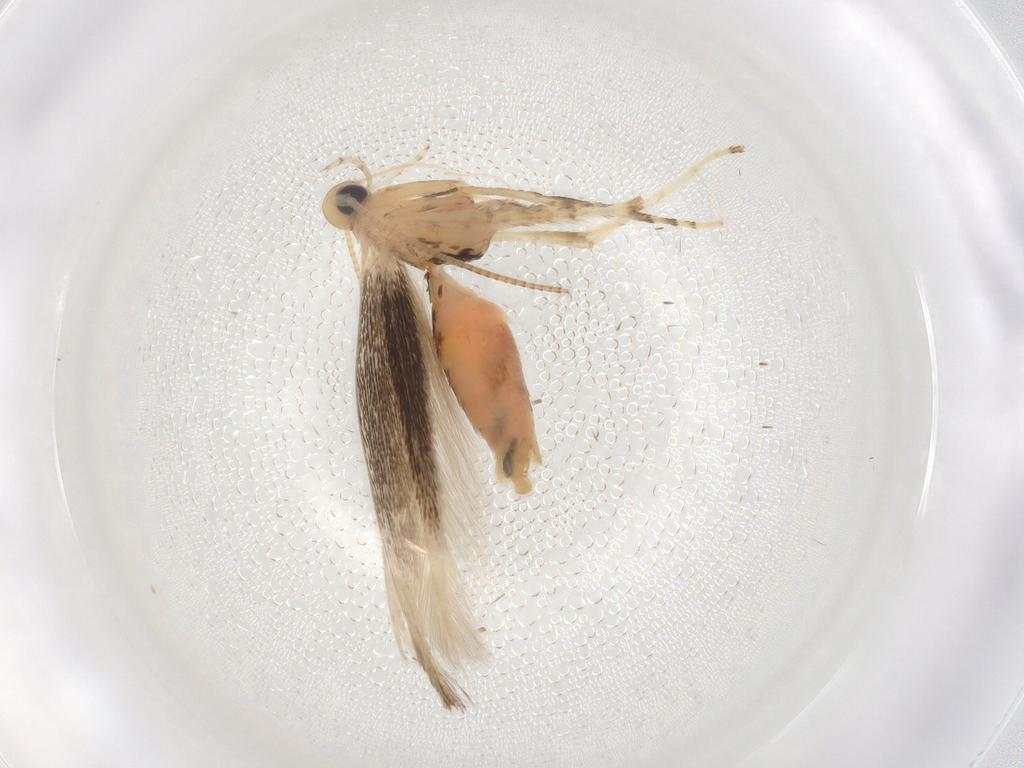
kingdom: Animalia
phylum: Arthropoda
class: Insecta
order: Lepidoptera
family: Gracillariidae
